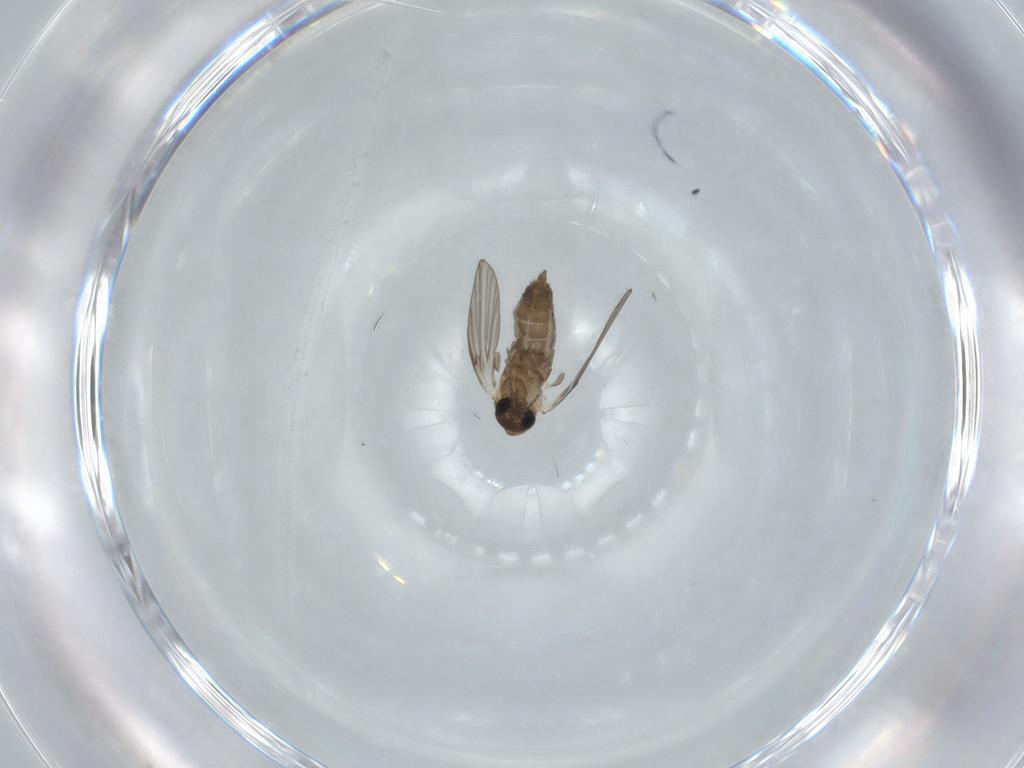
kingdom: Animalia
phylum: Arthropoda
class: Insecta
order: Diptera
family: Psychodidae
